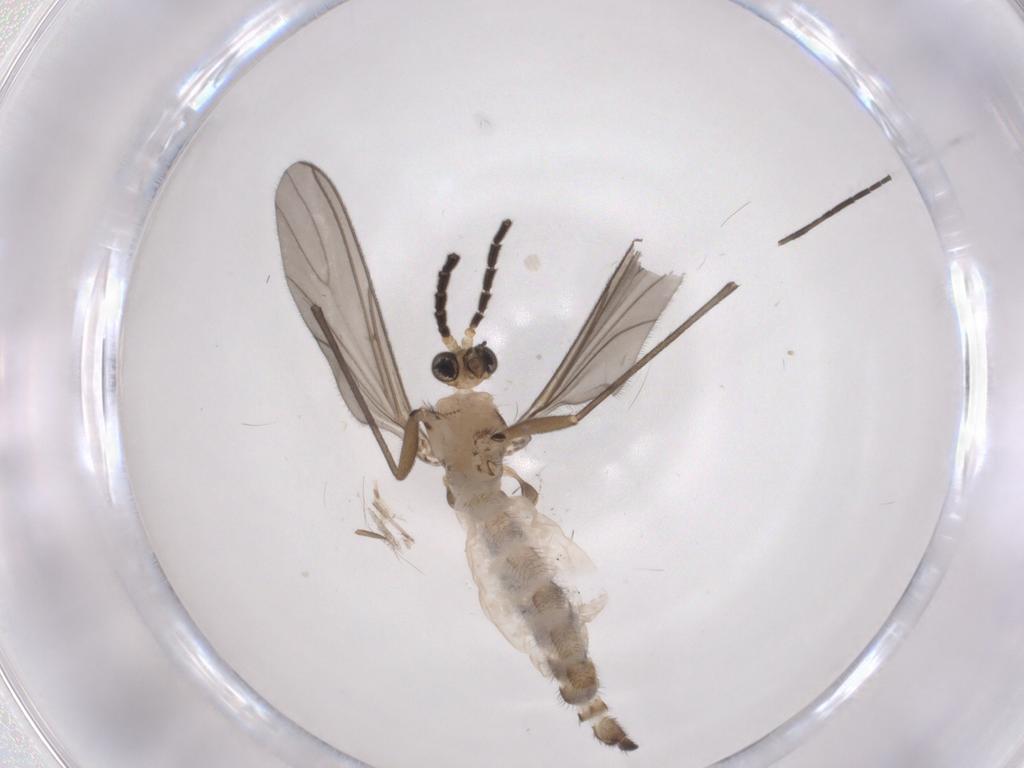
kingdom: Animalia
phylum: Arthropoda
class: Insecta
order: Diptera
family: Sciaridae
